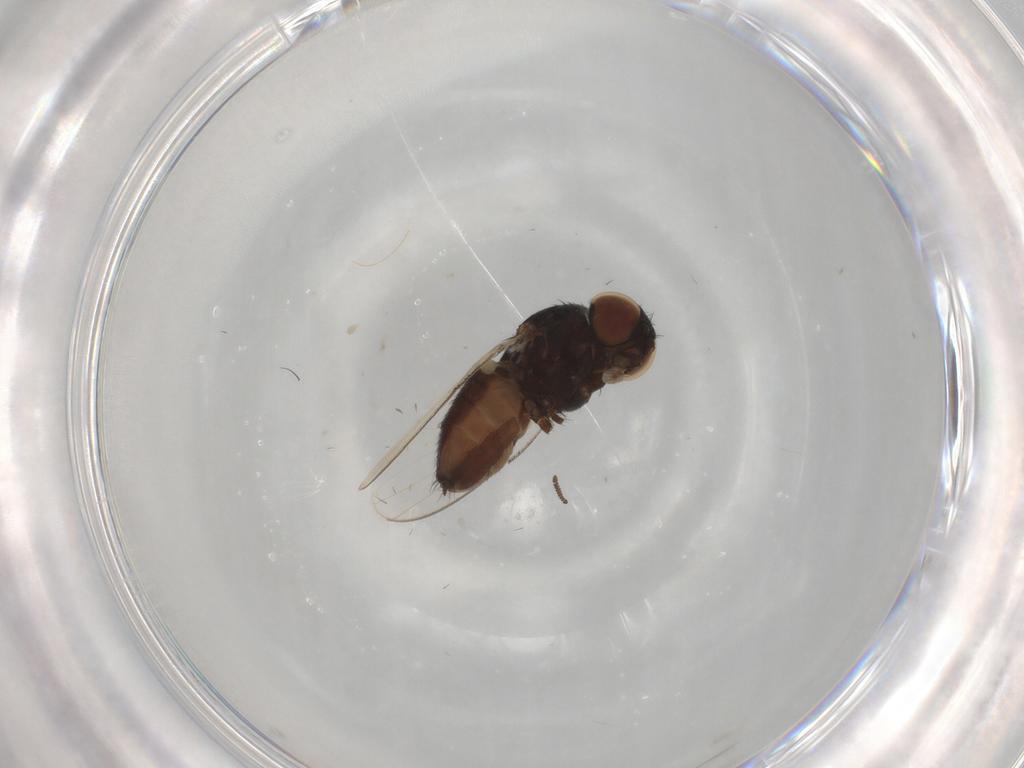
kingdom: Animalia
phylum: Arthropoda
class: Insecta
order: Diptera
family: Milichiidae
